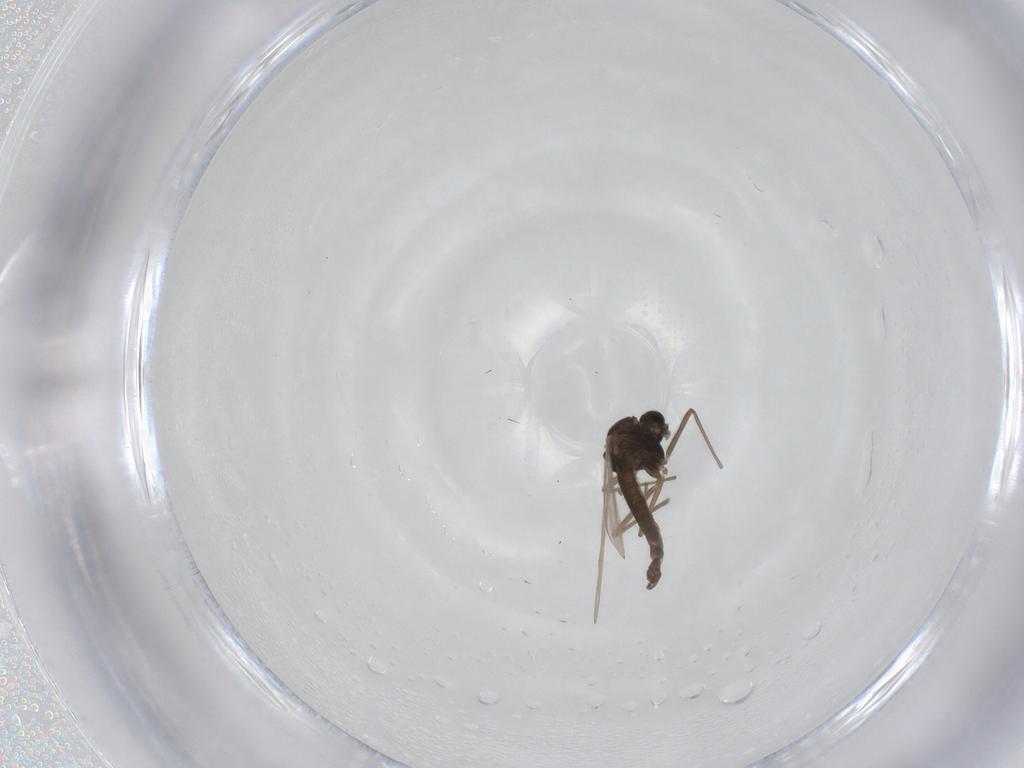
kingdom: Animalia
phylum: Arthropoda
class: Insecta
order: Diptera
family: Chironomidae
